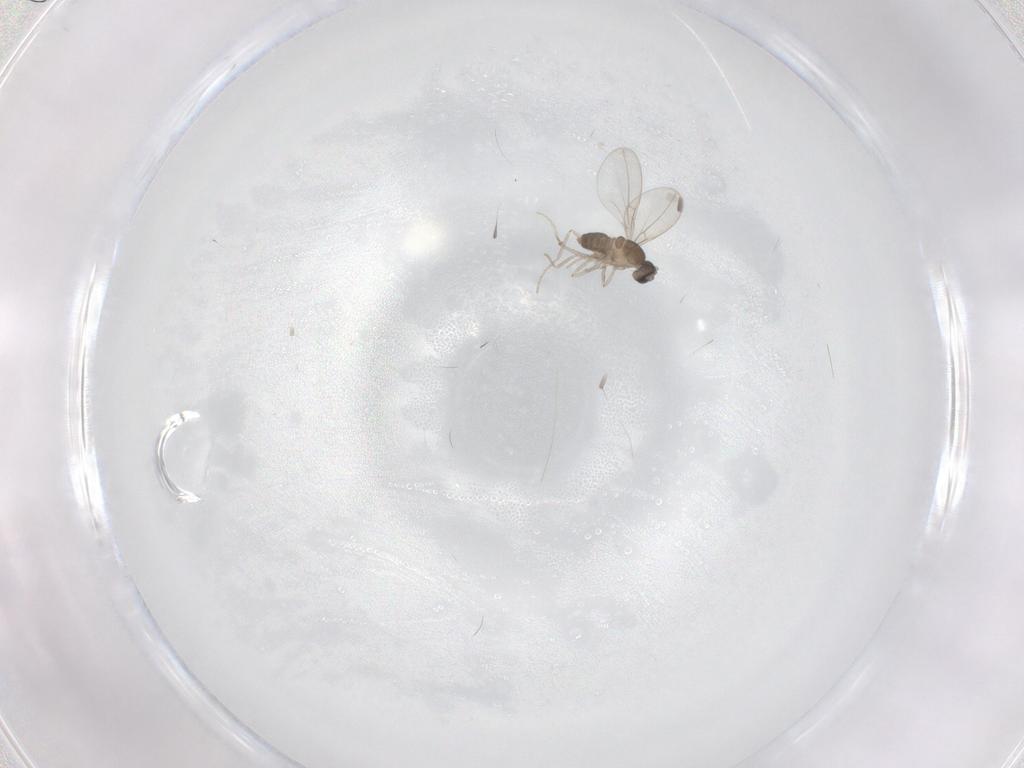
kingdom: Animalia
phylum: Arthropoda
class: Insecta
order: Diptera
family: Cecidomyiidae
